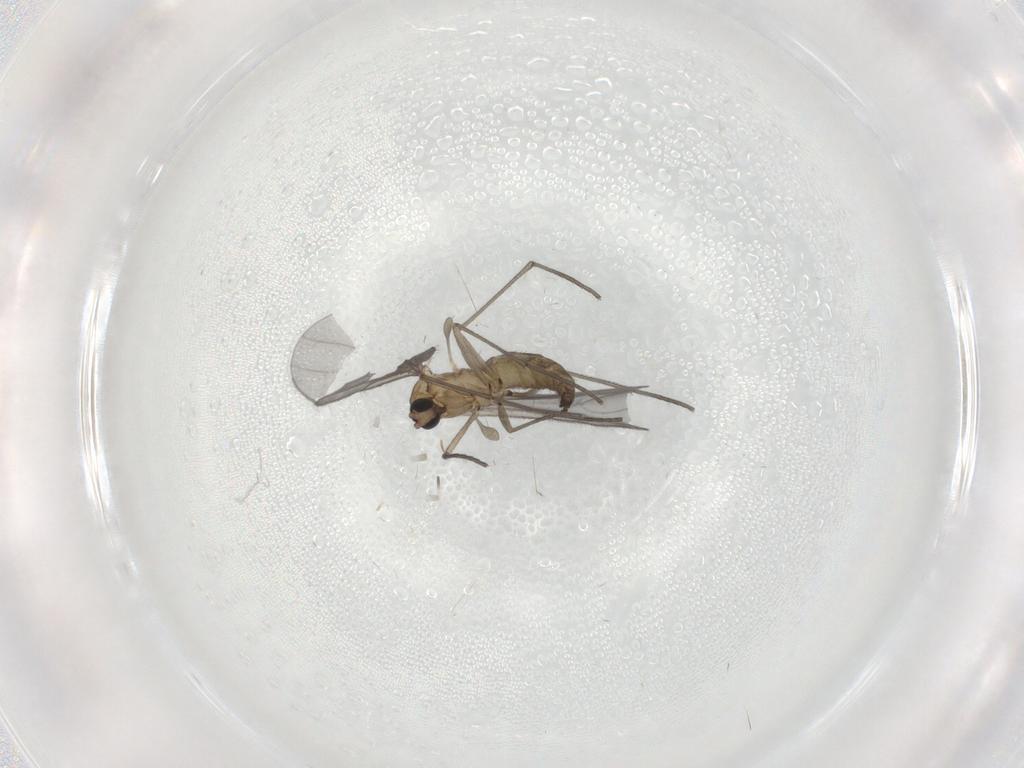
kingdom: Animalia
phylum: Arthropoda
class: Insecta
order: Diptera
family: Sciaridae
